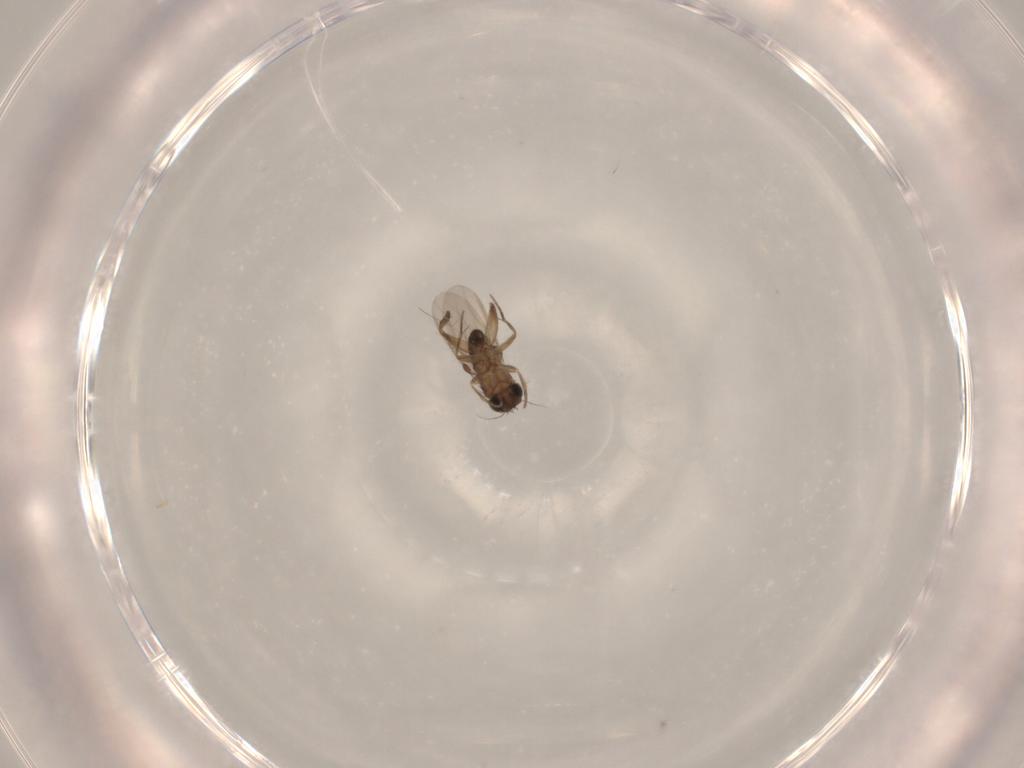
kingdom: Animalia
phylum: Arthropoda
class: Insecta
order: Diptera
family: Phoridae
